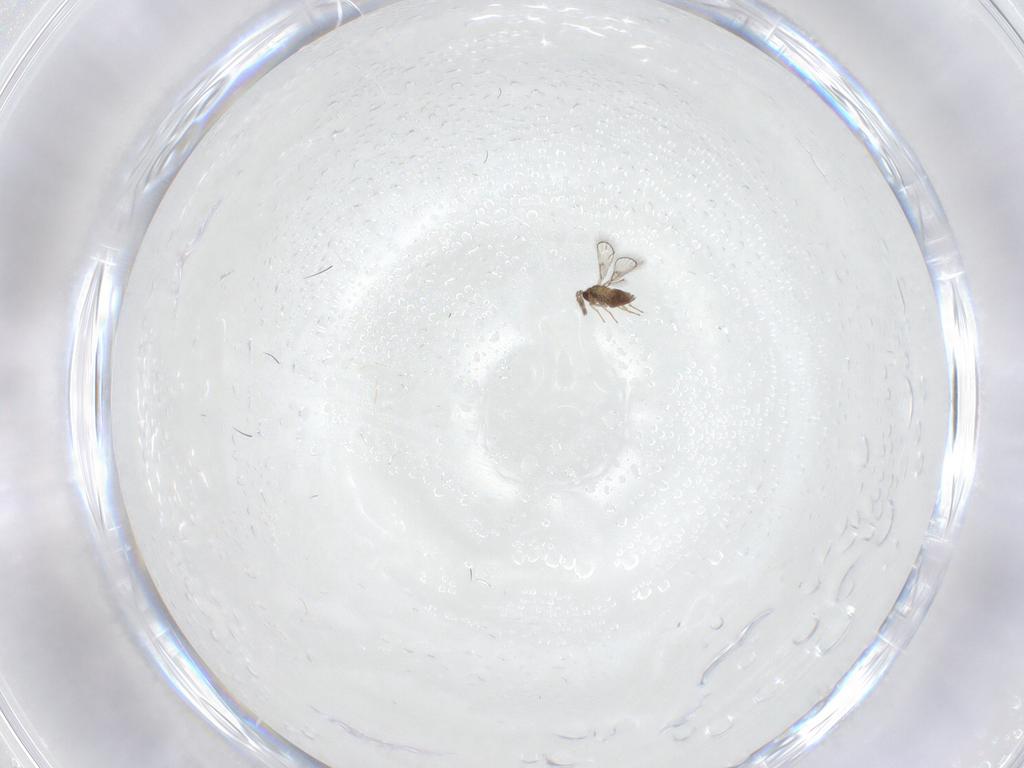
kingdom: Animalia
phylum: Arthropoda
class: Insecta
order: Hymenoptera
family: Trichogrammatidae
